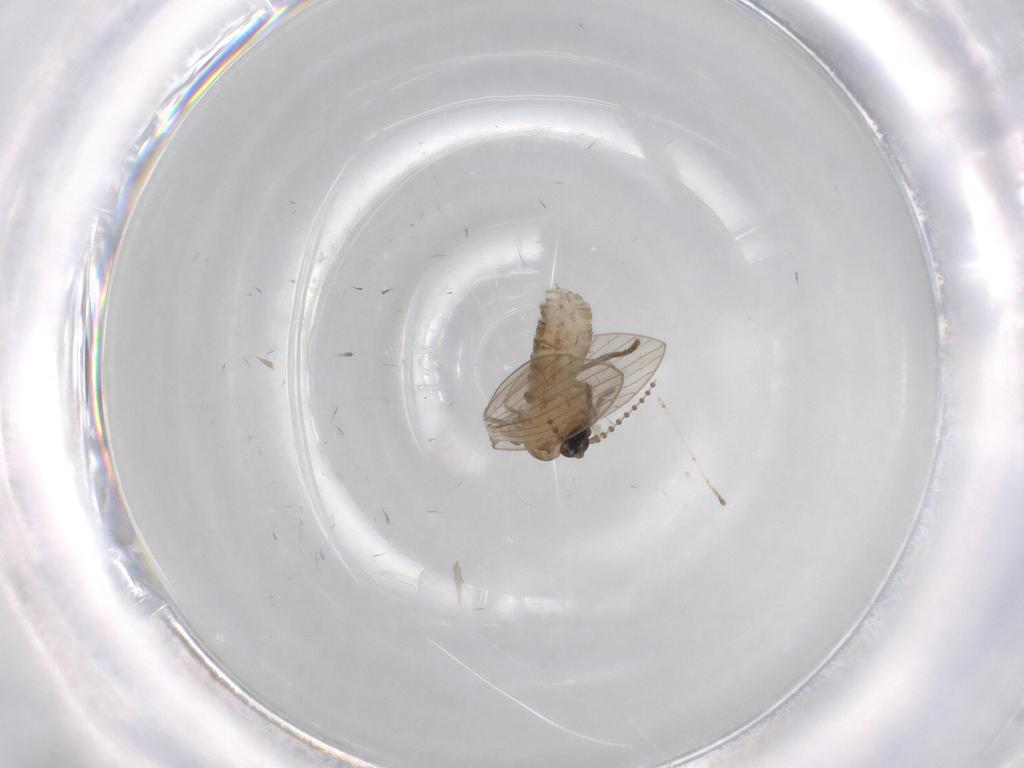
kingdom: Animalia
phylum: Arthropoda
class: Insecta
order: Diptera
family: Psychodidae
